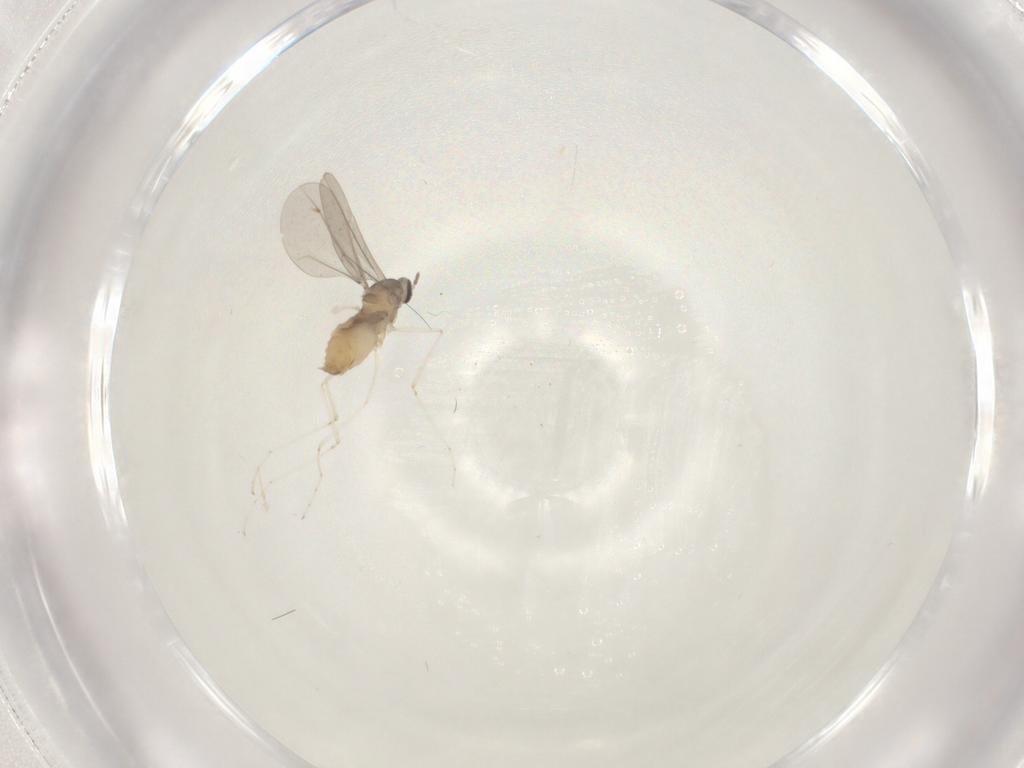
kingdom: Animalia
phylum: Arthropoda
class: Insecta
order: Diptera
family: Cecidomyiidae
